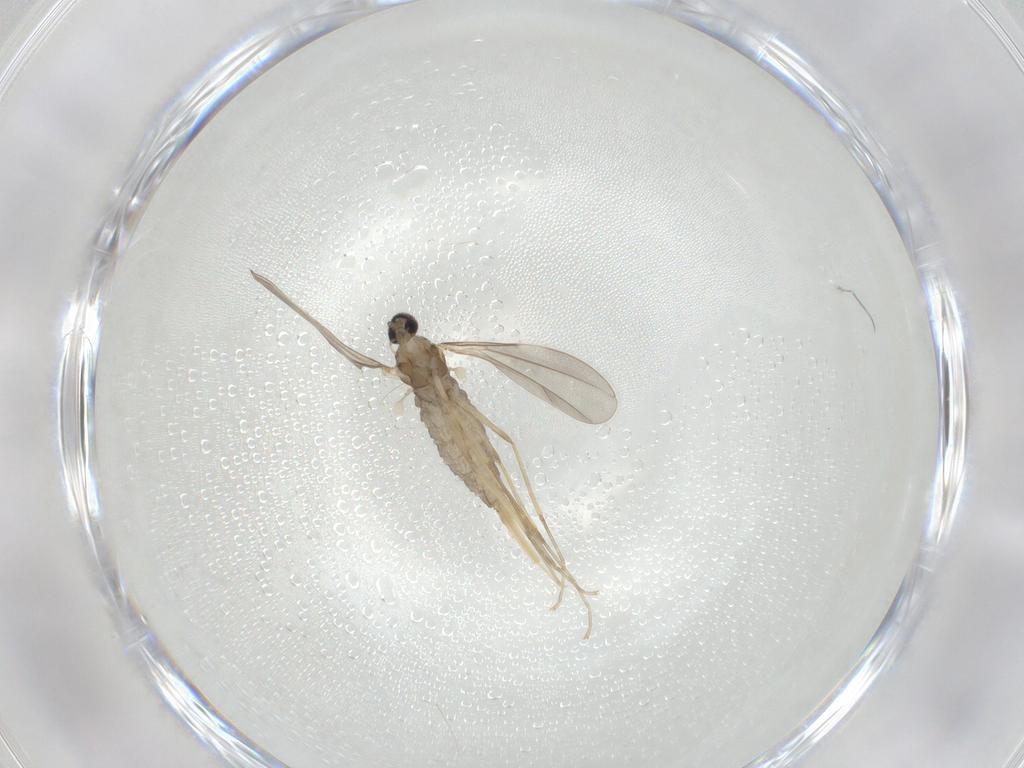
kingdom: Animalia
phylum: Arthropoda
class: Insecta
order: Diptera
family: Cecidomyiidae
